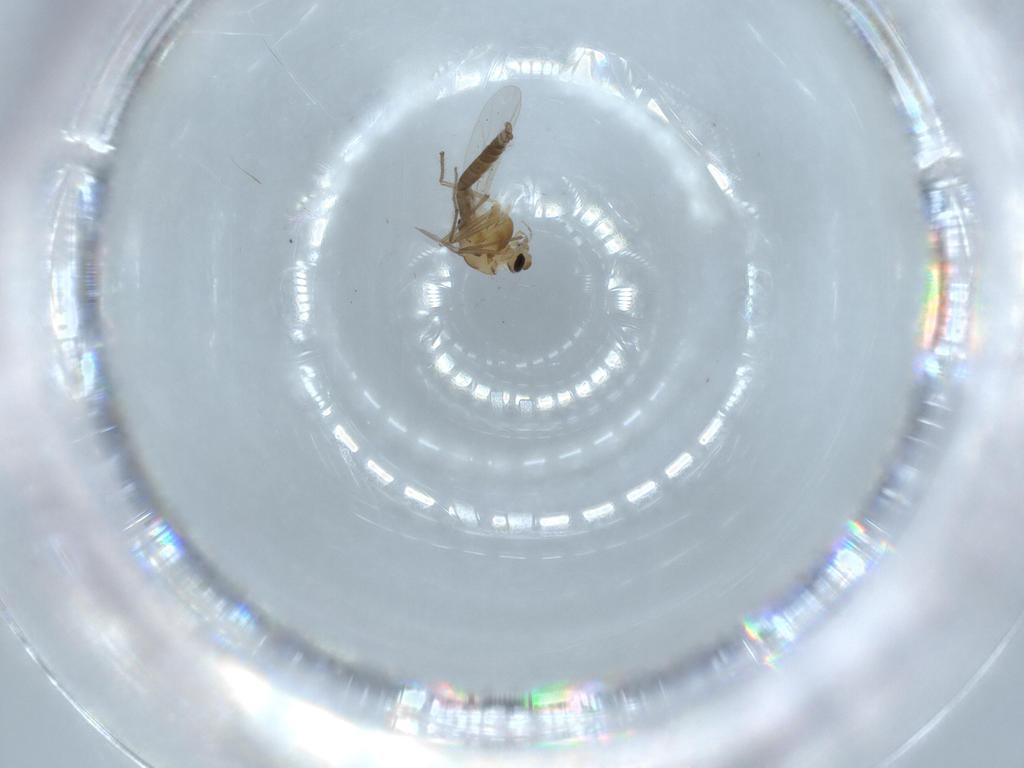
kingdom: Animalia
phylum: Arthropoda
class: Insecta
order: Diptera
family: Chironomidae
